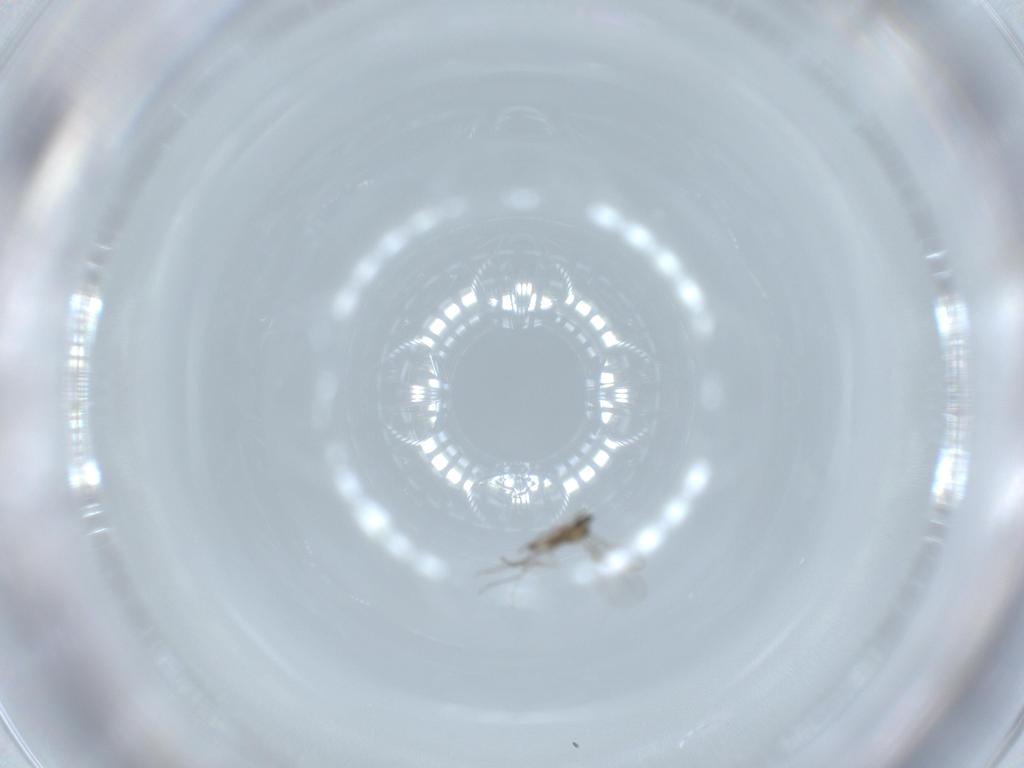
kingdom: Animalia
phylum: Arthropoda
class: Insecta
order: Diptera
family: Cecidomyiidae
